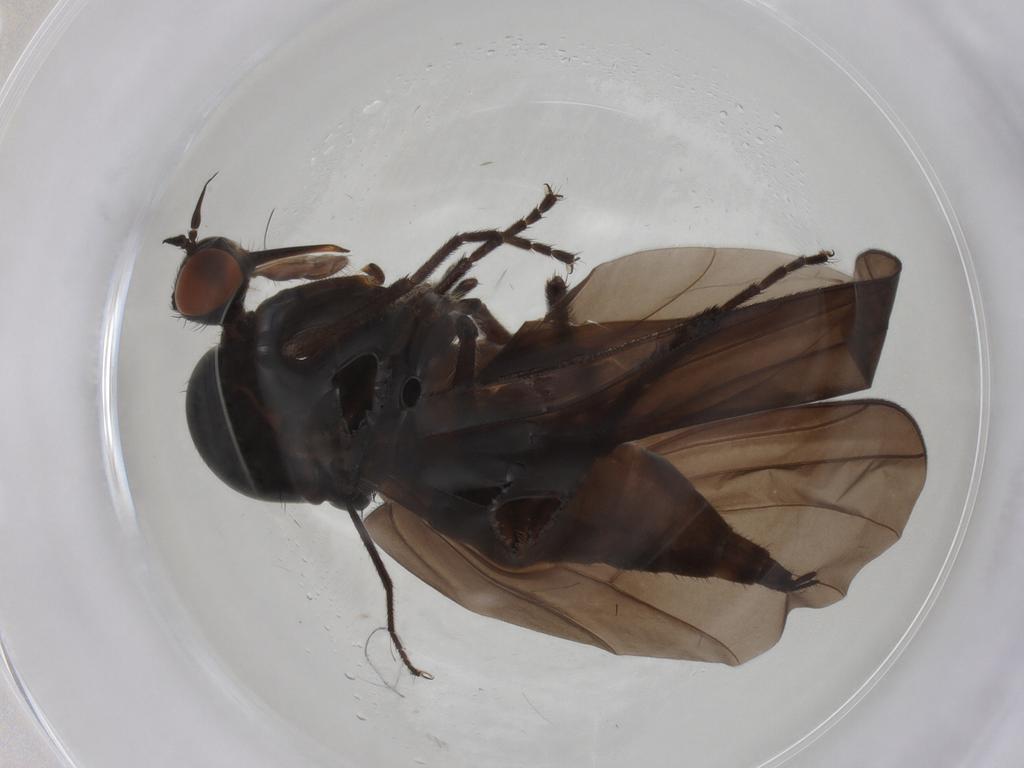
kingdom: Animalia
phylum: Arthropoda
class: Insecta
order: Diptera
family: Empididae
